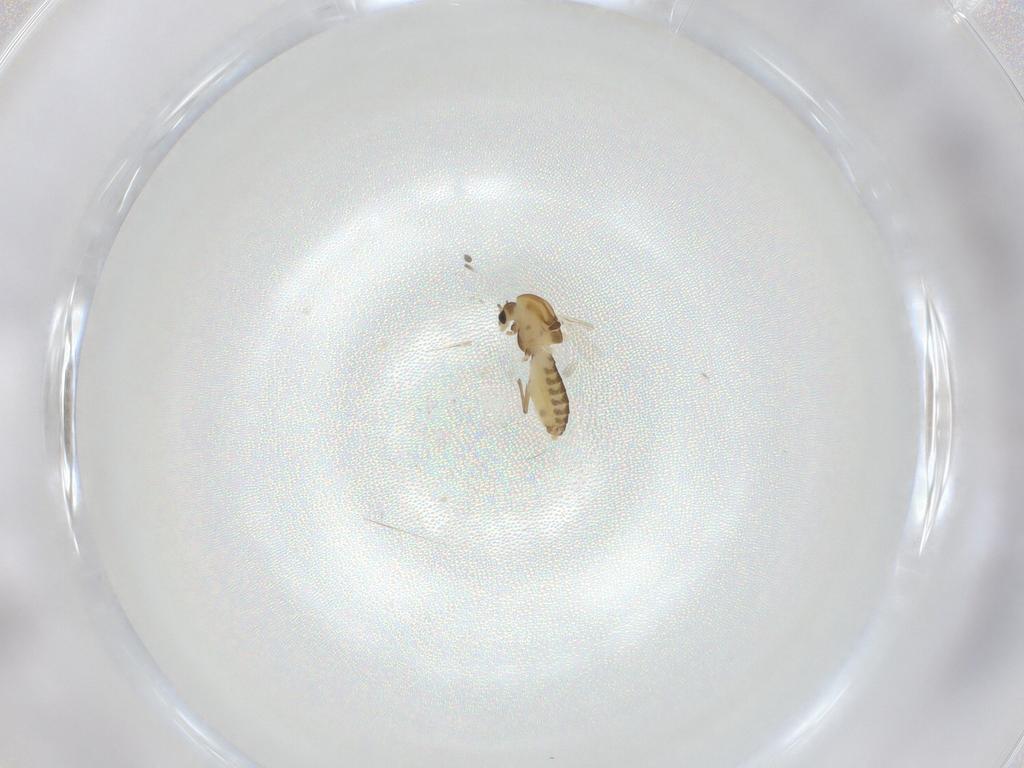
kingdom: Animalia
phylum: Arthropoda
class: Insecta
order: Diptera
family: Chironomidae
